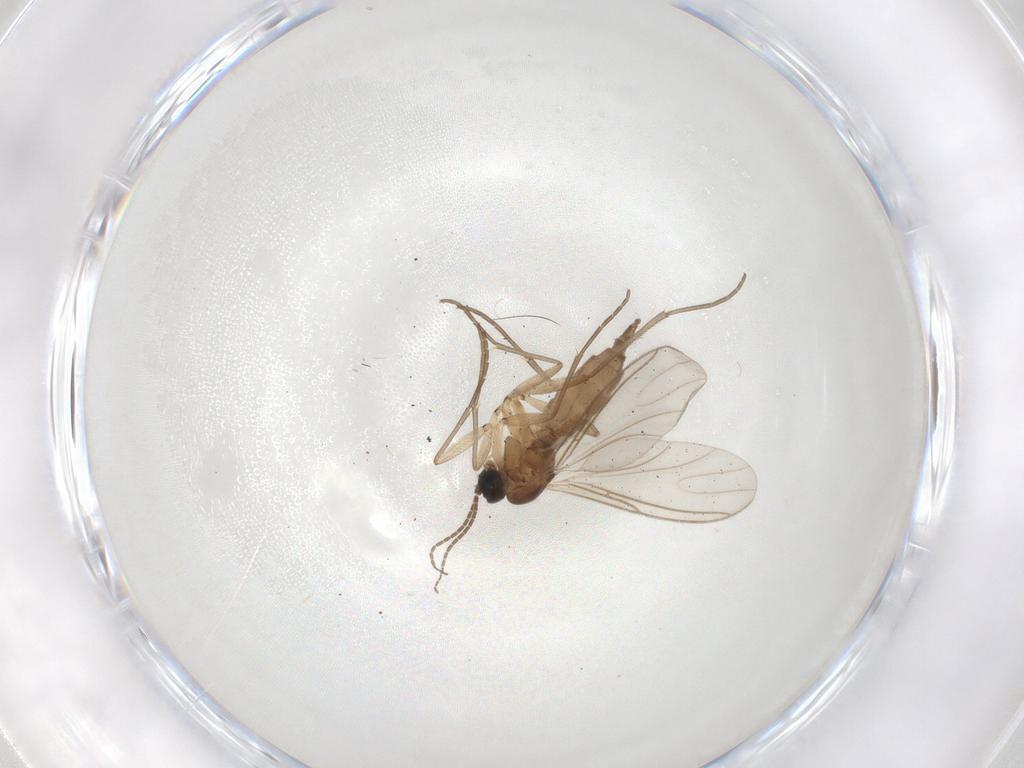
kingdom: Animalia
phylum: Arthropoda
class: Insecta
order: Diptera
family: Sciaridae
